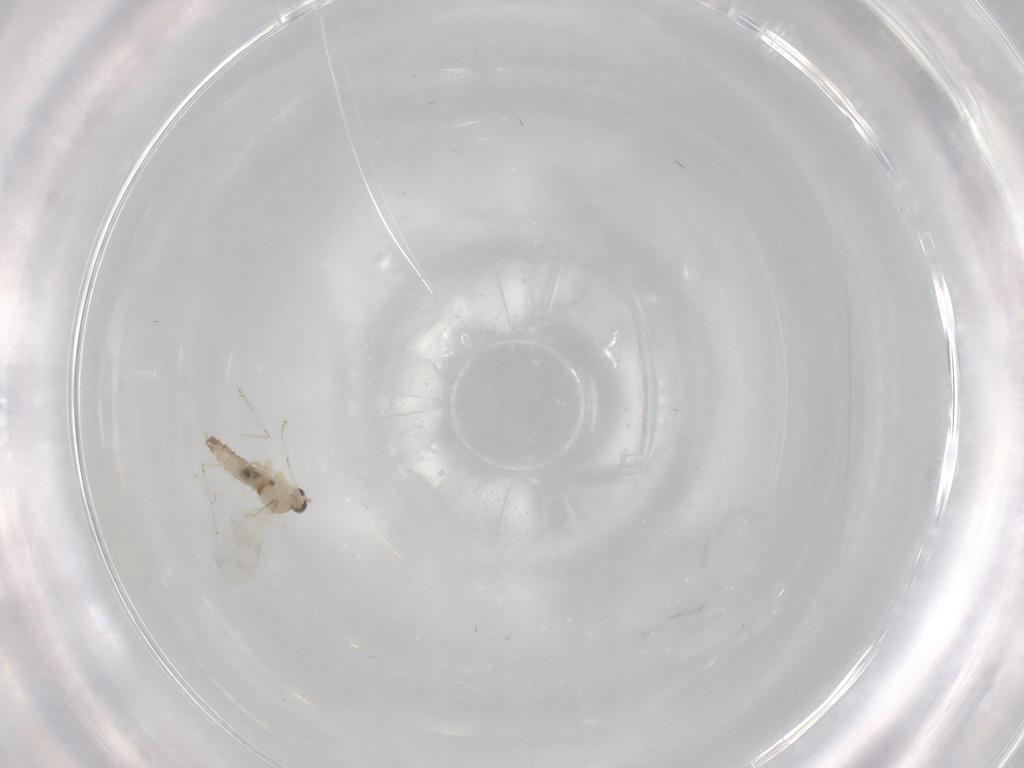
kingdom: Animalia
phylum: Arthropoda
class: Insecta
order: Diptera
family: Cecidomyiidae
